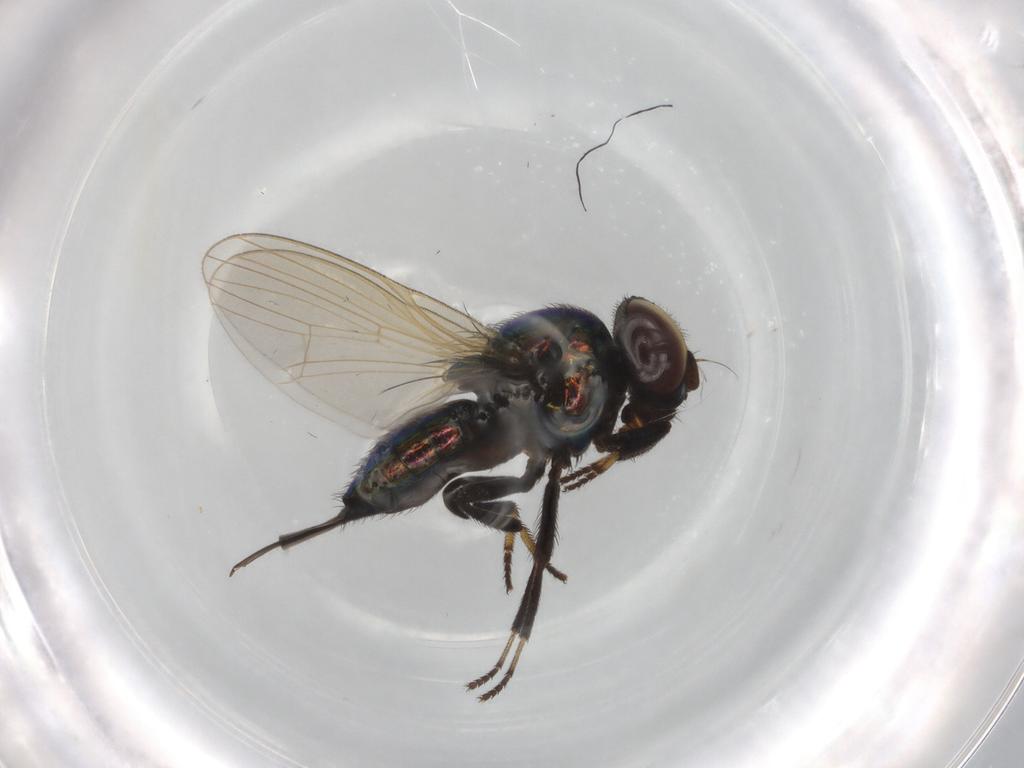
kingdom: Animalia
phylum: Arthropoda
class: Insecta
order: Diptera
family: Lonchaeidae
